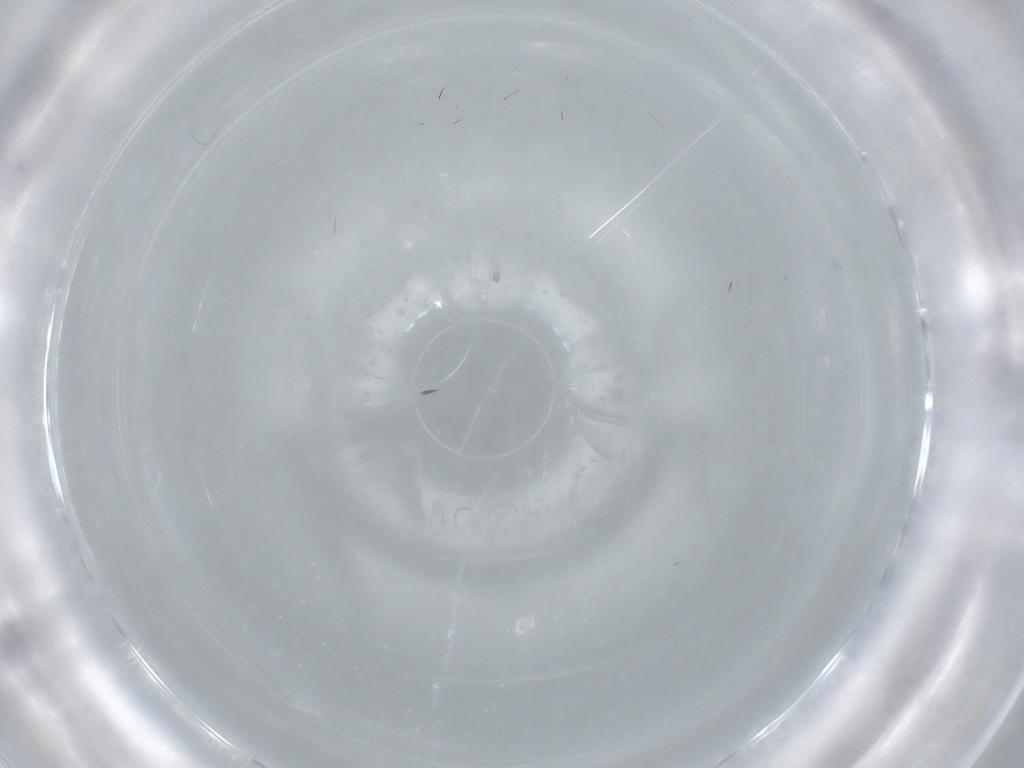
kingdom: Animalia
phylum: Arthropoda
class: Insecta
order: Diptera
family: Phoridae
